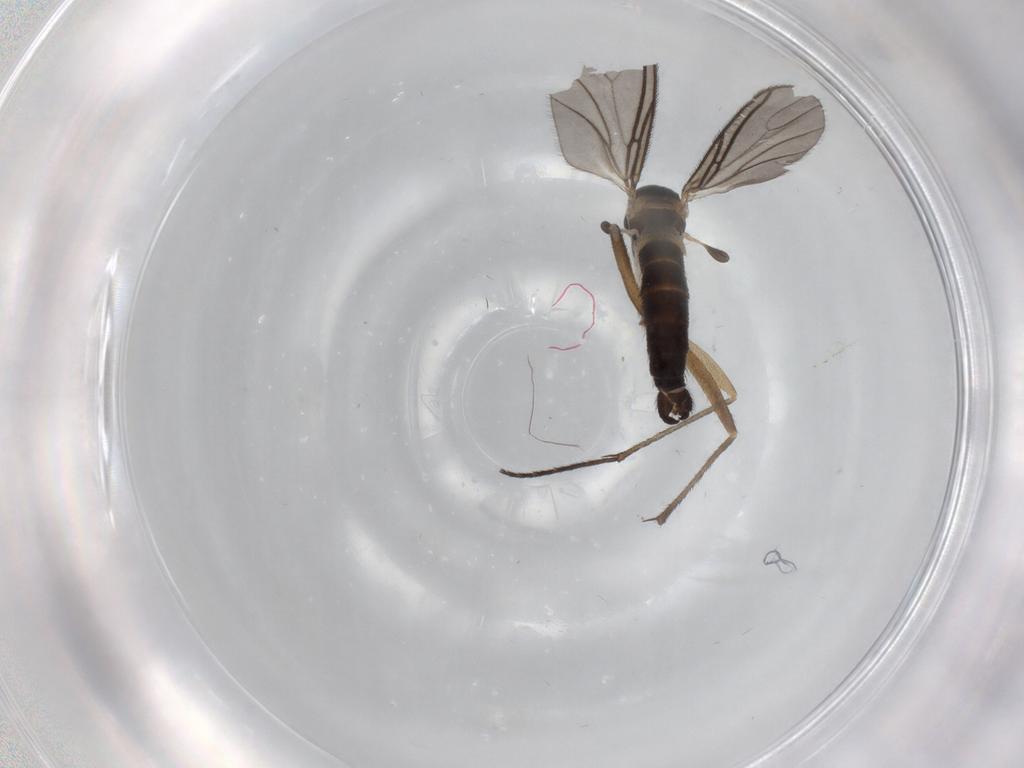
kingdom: Animalia
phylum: Arthropoda
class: Insecta
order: Diptera
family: Sciaridae
